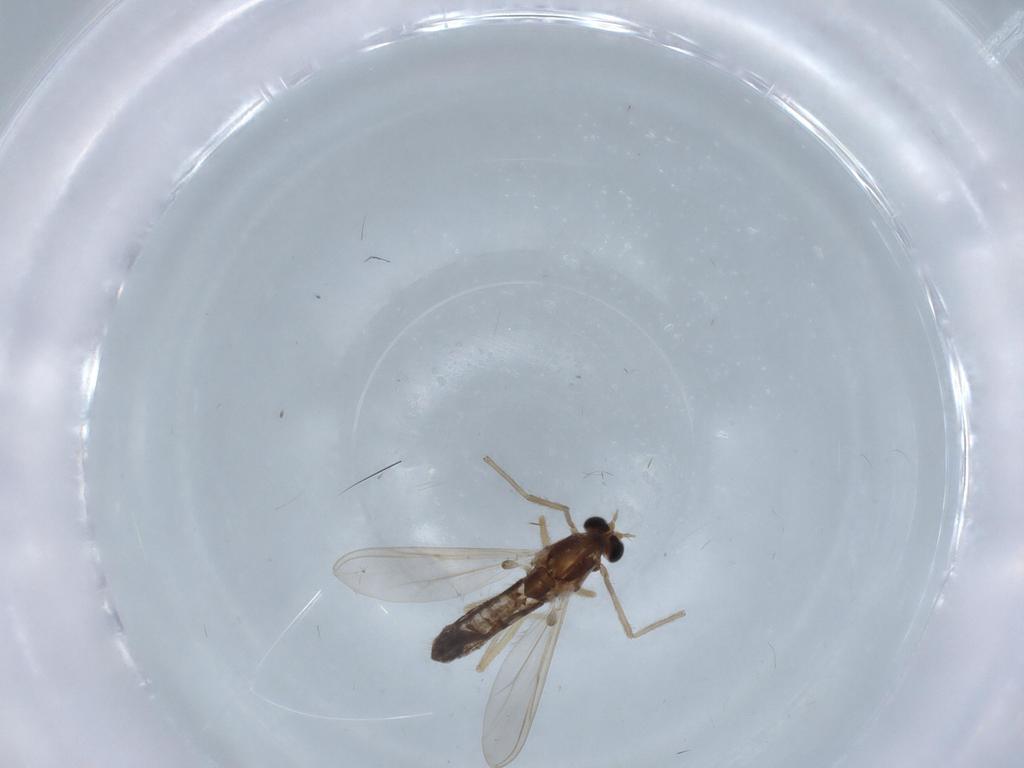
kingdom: Animalia
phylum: Arthropoda
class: Insecta
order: Diptera
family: Chironomidae
